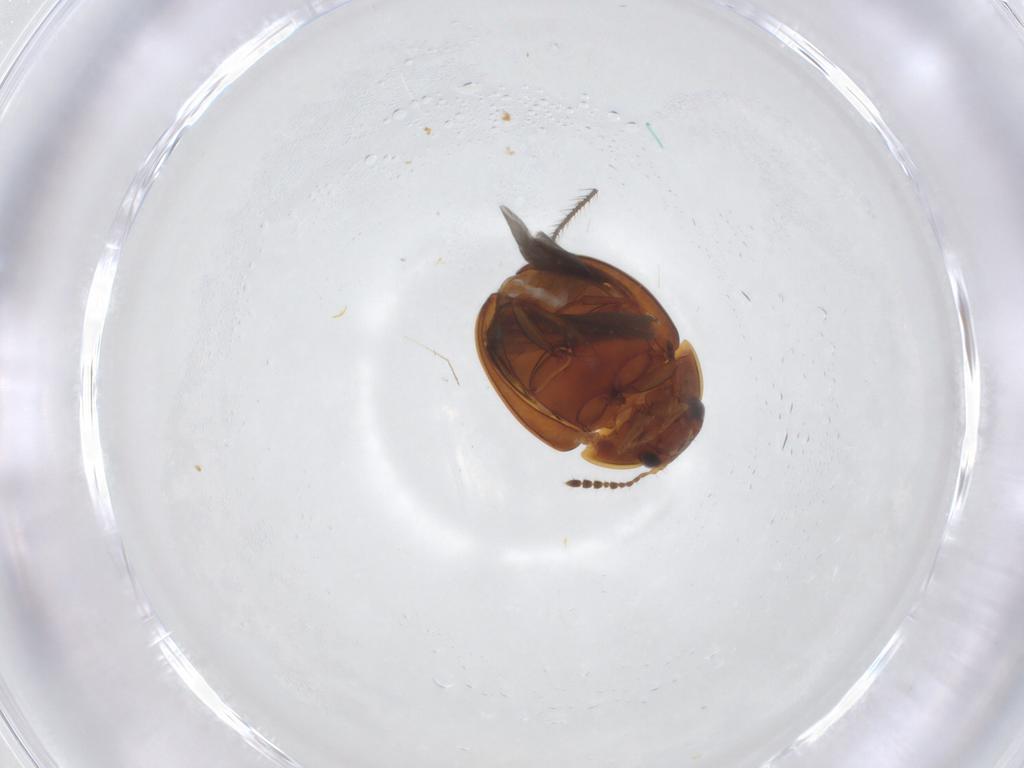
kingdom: Animalia
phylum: Arthropoda
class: Insecta
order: Coleoptera
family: Leiodidae
